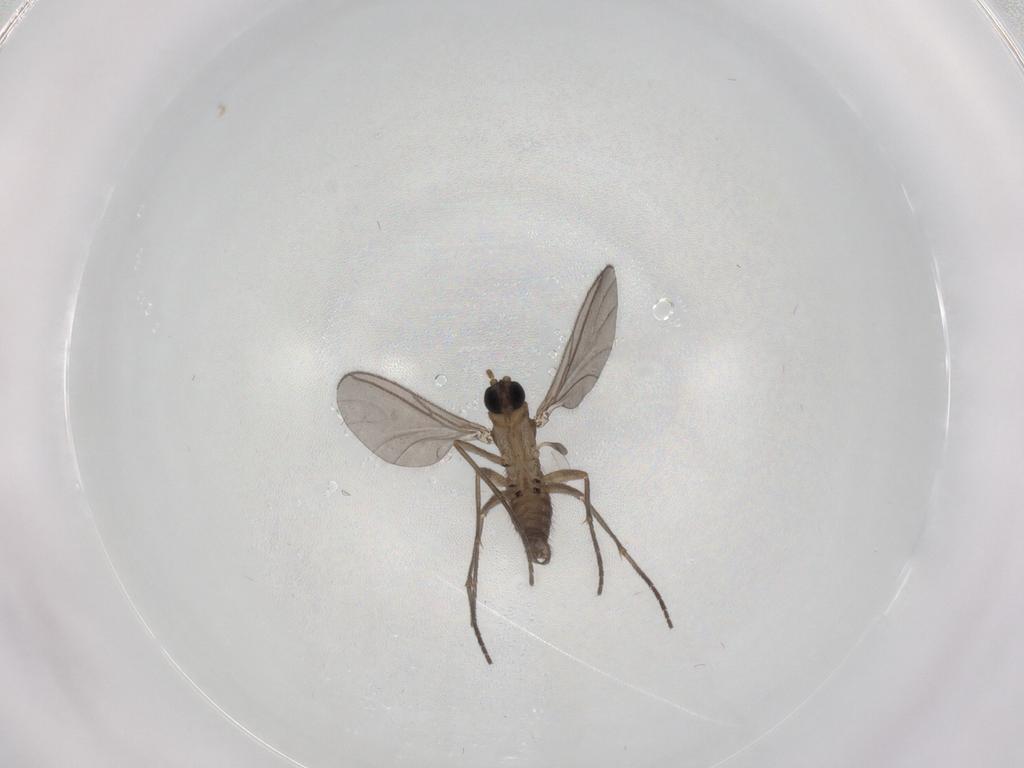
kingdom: Animalia
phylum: Arthropoda
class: Insecta
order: Diptera
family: Sciaridae
